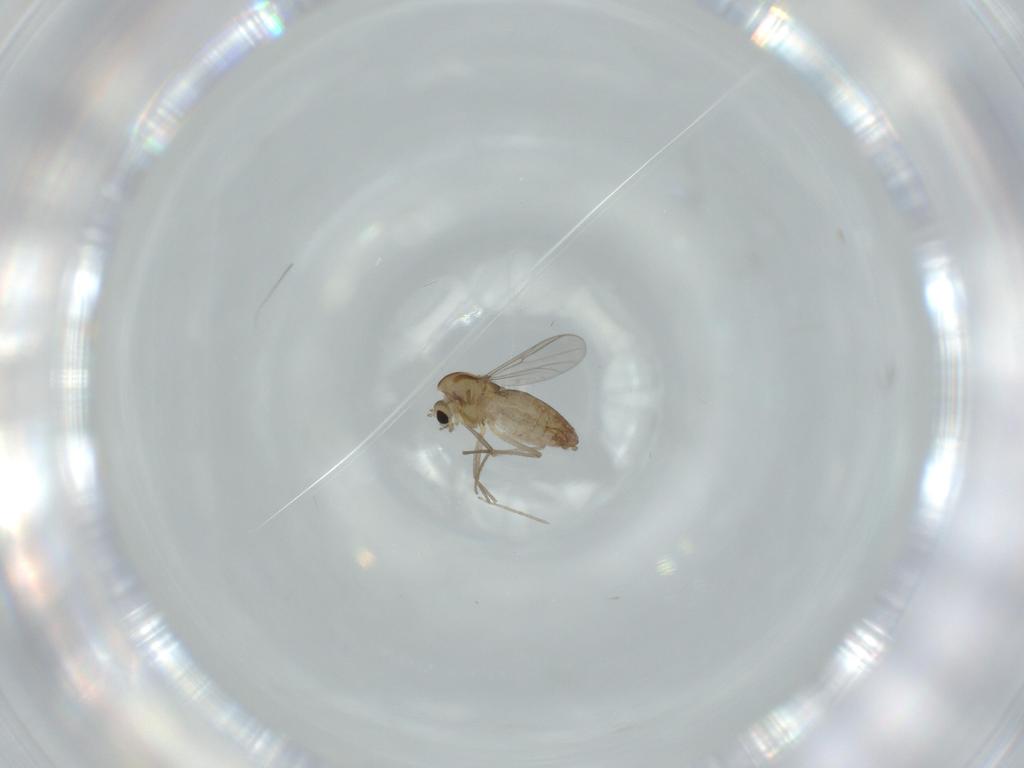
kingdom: Animalia
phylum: Arthropoda
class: Insecta
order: Diptera
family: Chironomidae
